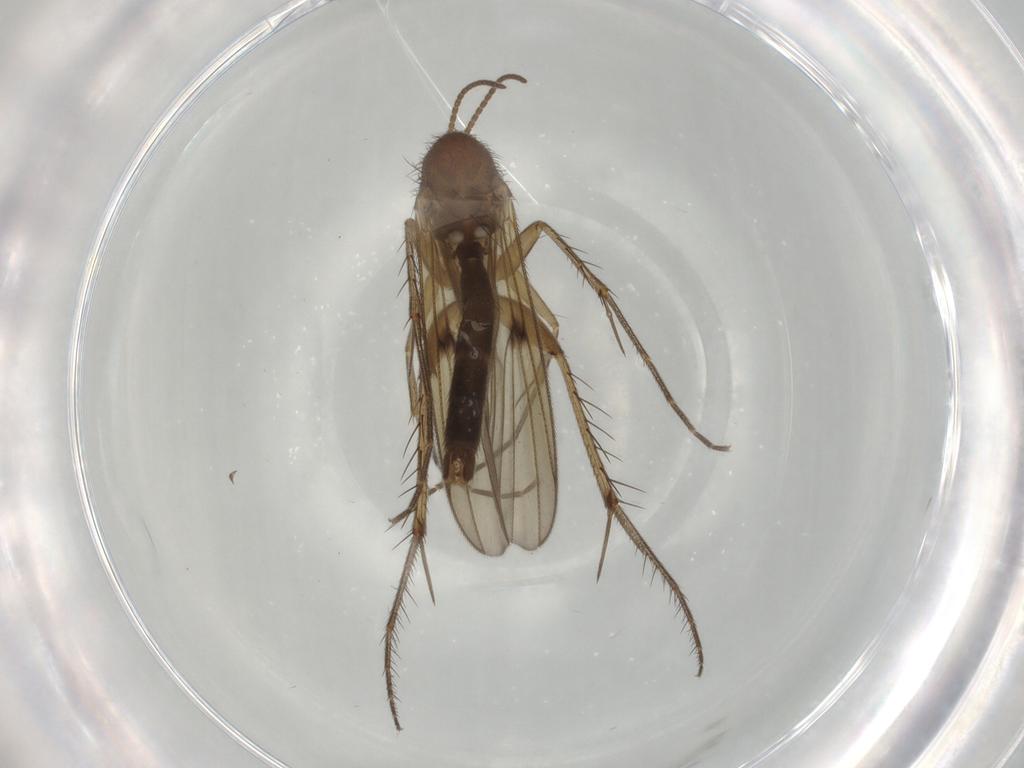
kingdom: Animalia
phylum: Arthropoda
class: Insecta
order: Diptera
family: Mycetophilidae
